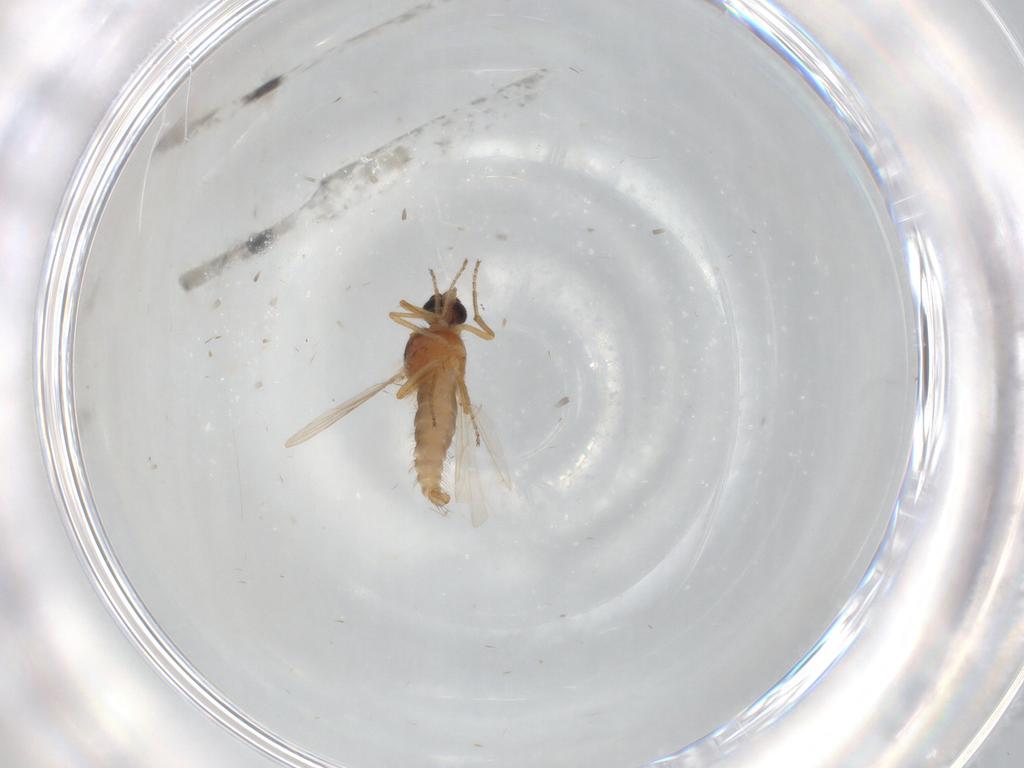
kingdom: Animalia
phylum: Arthropoda
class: Insecta
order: Diptera
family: Ceratopogonidae
